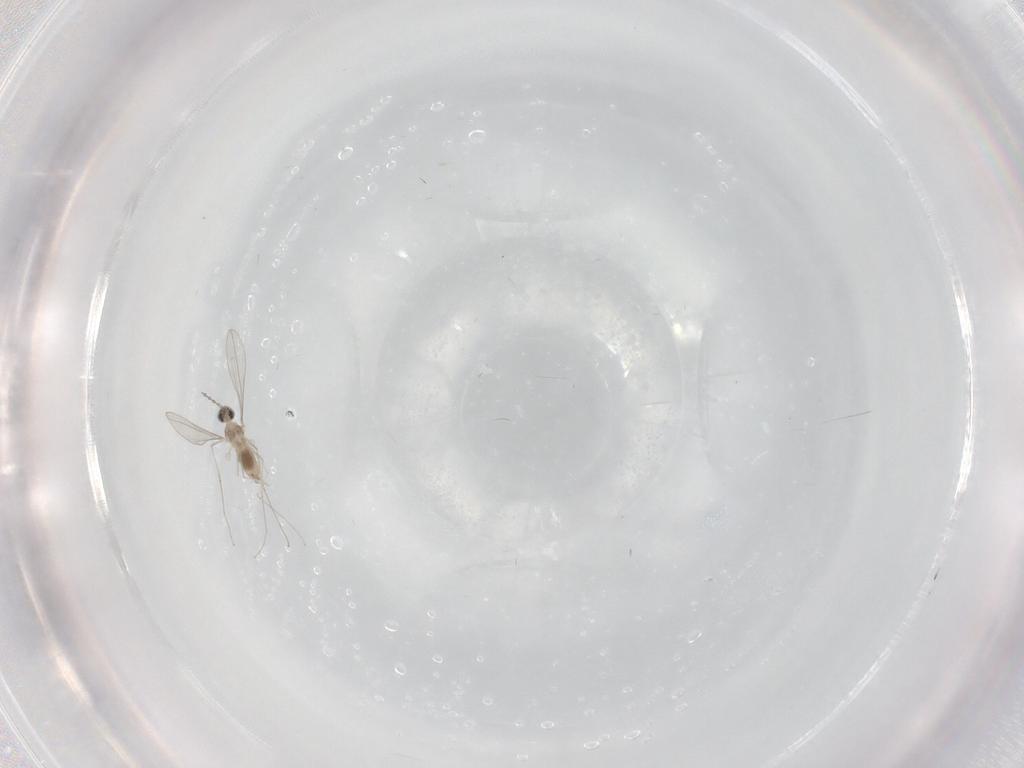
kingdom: Animalia
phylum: Arthropoda
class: Insecta
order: Diptera
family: Cecidomyiidae
